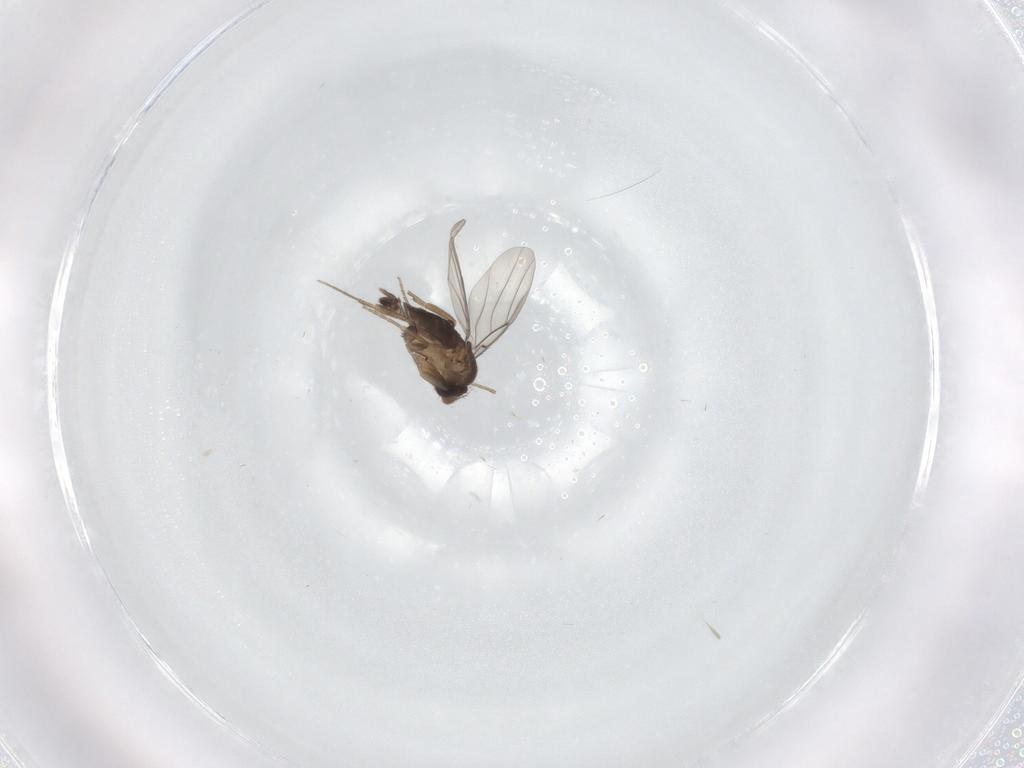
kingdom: Animalia
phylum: Arthropoda
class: Insecta
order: Diptera
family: Phoridae
